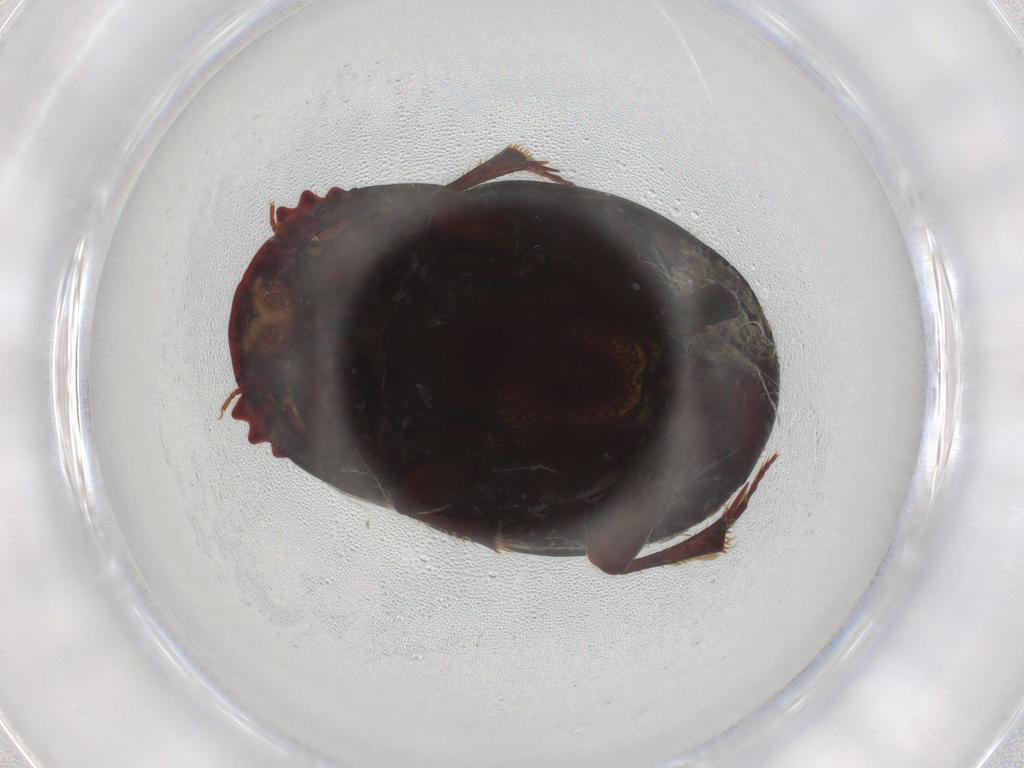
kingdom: Animalia
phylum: Arthropoda
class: Insecta
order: Coleoptera
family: Scarabaeidae
